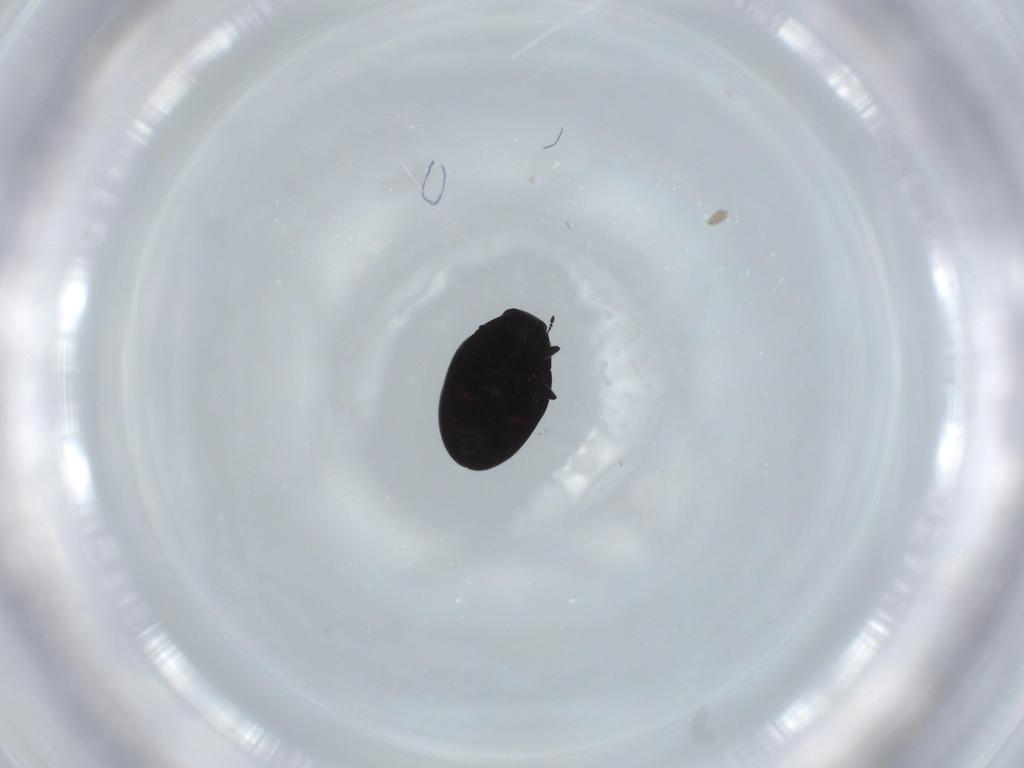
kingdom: Animalia
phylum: Arthropoda
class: Insecta
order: Coleoptera
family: Limnichidae
